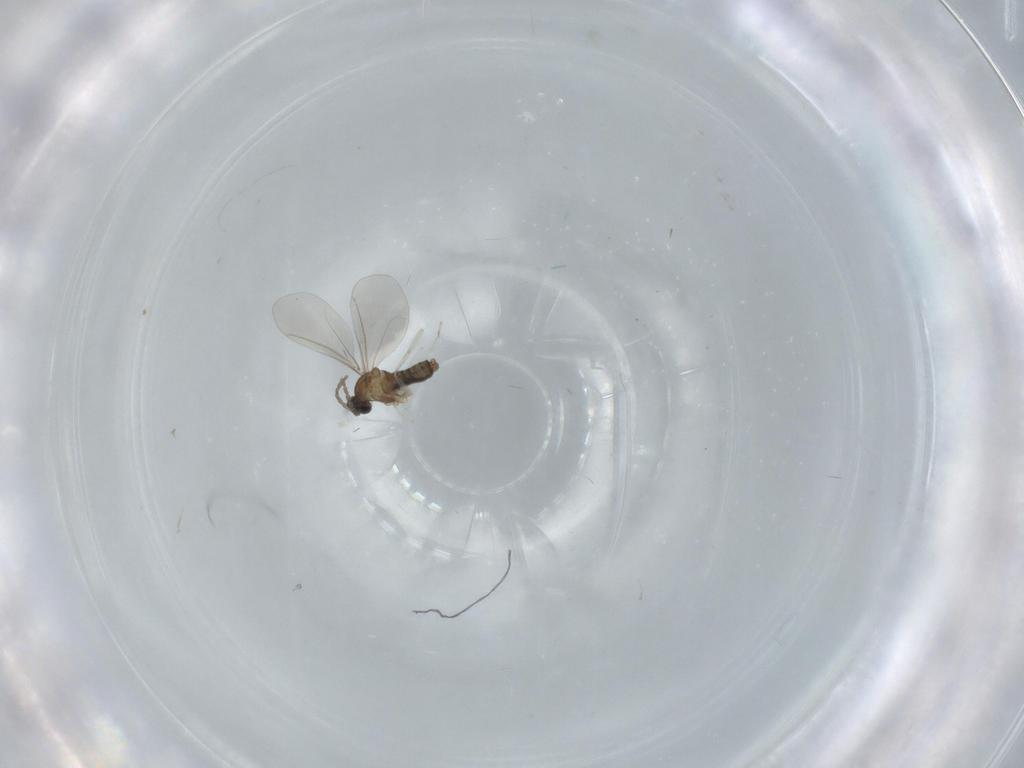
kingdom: Animalia
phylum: Arthropoda
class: Insecta
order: Diptera
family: Cecidomyiidae
